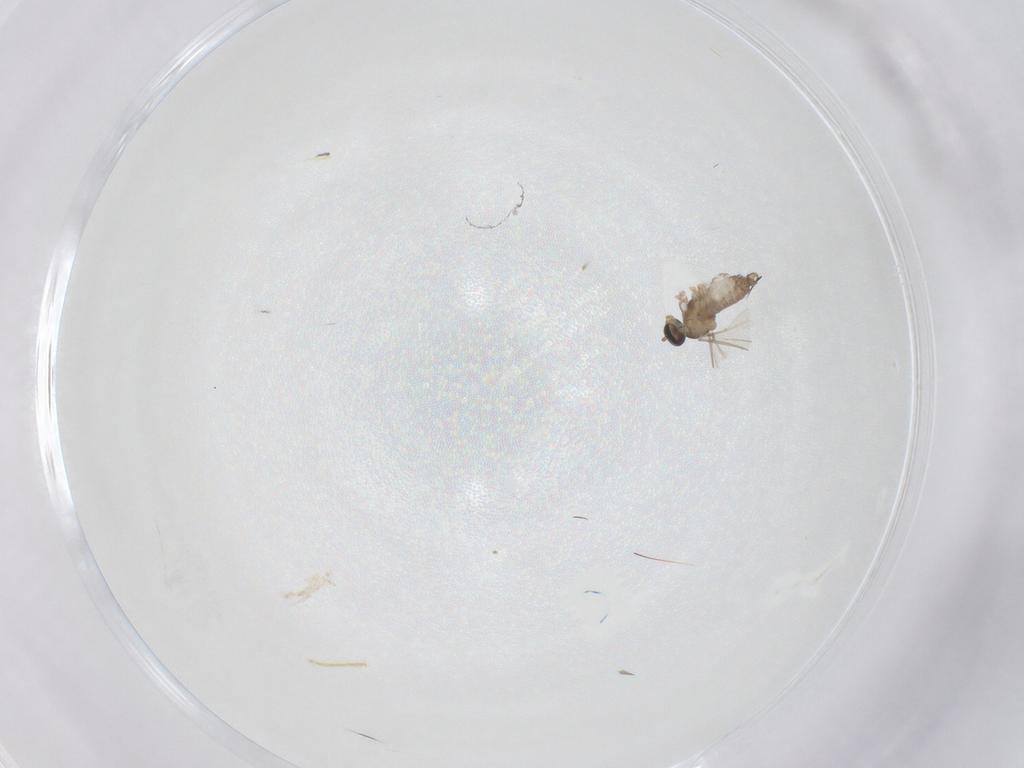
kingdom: Animalia
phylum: Arthropoda
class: Insecta
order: Diptera
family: Cecidomyiidae
